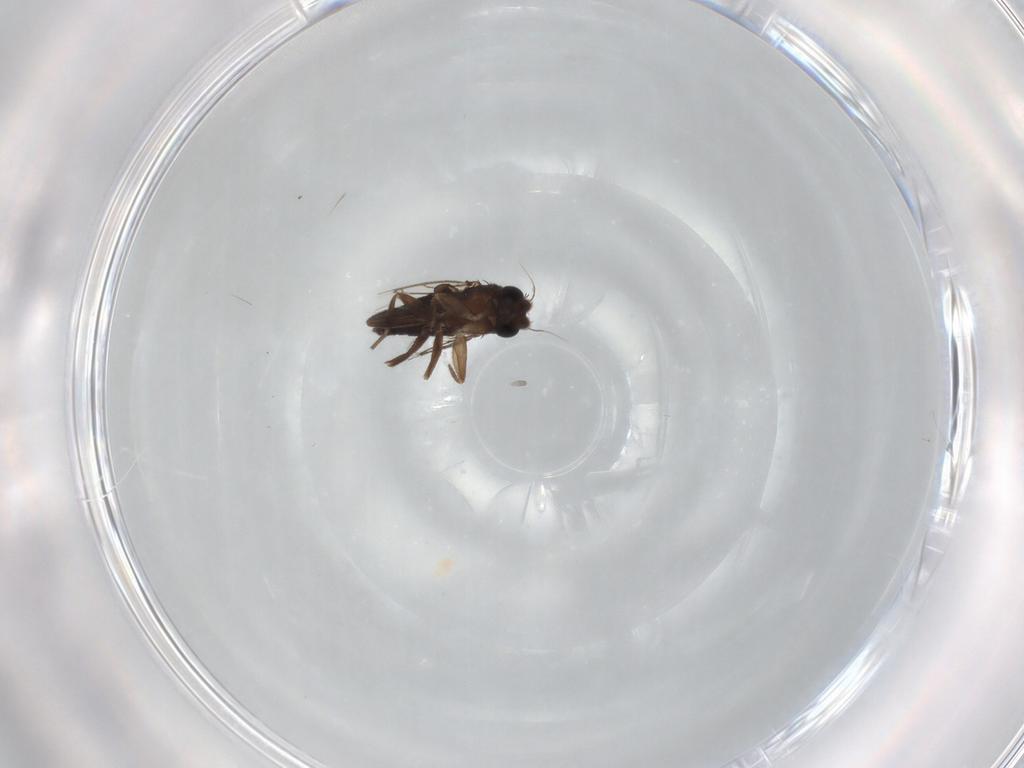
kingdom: Animalia
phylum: Arthropoda
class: Insecta
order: Diptera
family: Phoridae
